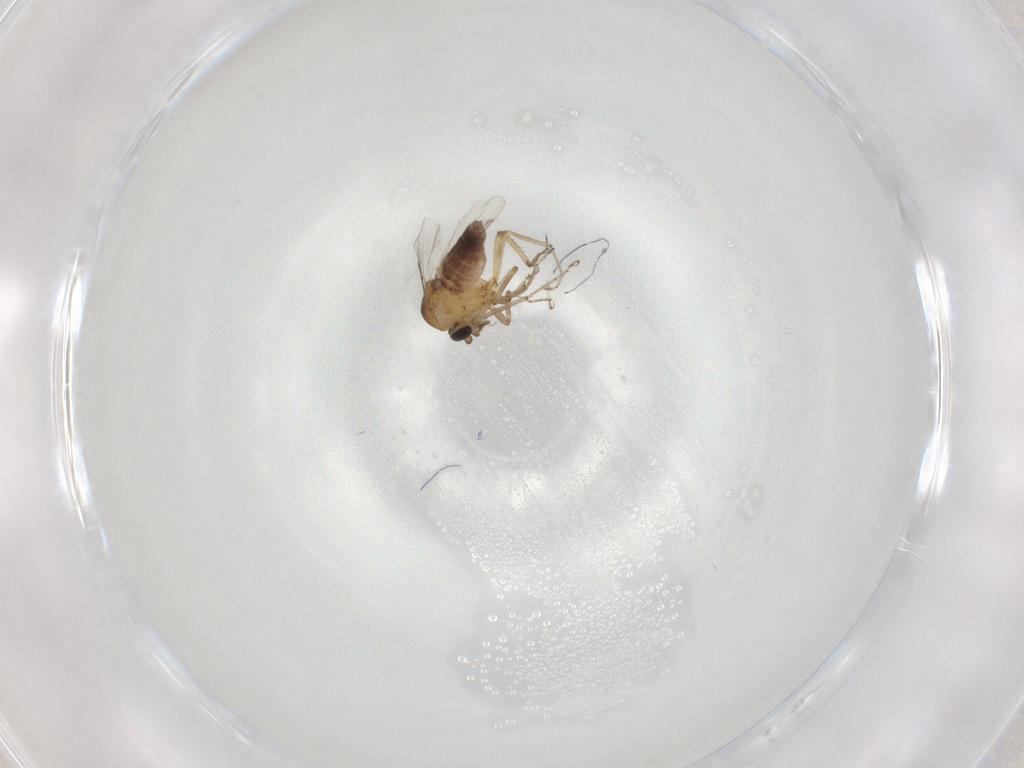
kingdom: Animalia
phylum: Arthropoda
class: Insecta
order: Diptera
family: Ceratopogonidae
